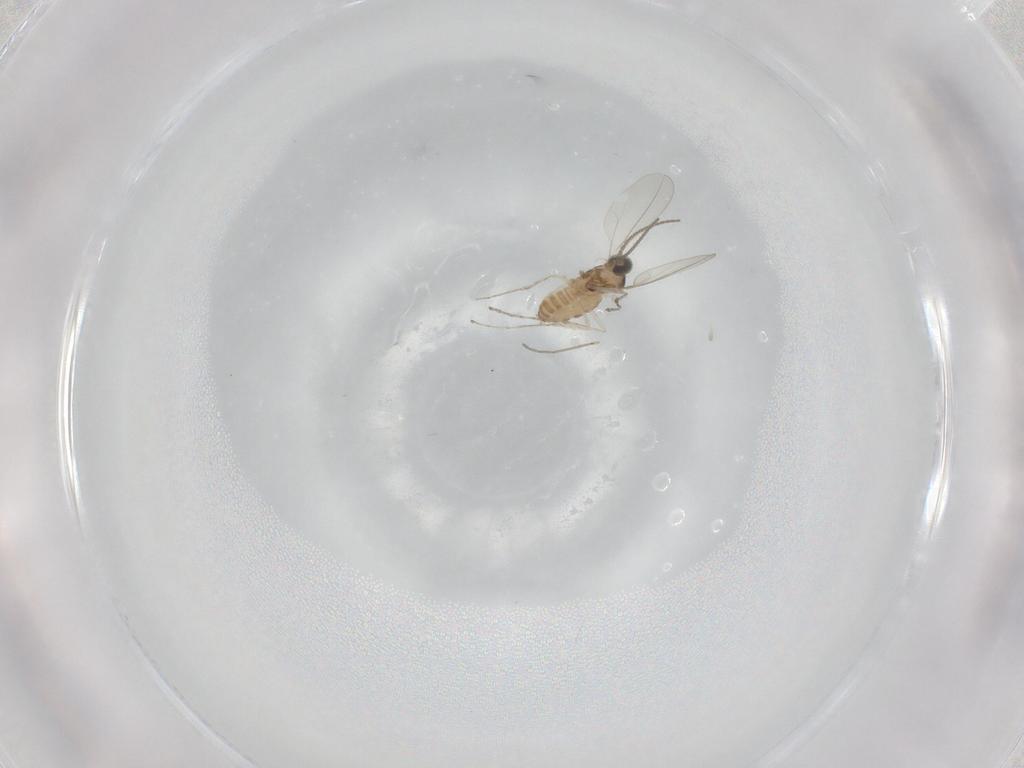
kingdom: Animalia
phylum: Arthropoda
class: Insecta
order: Diptera
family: Cecidomyiidae
